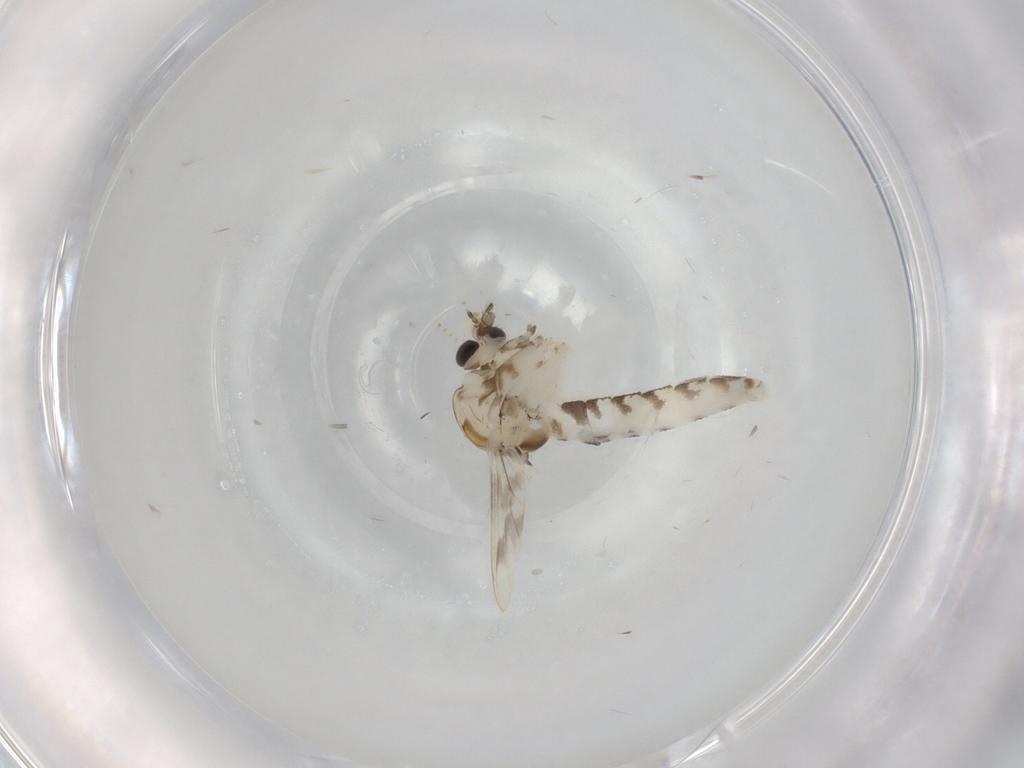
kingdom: Animalia
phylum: Arthropoda
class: Insecta
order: Diptera
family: Corethrellidae
